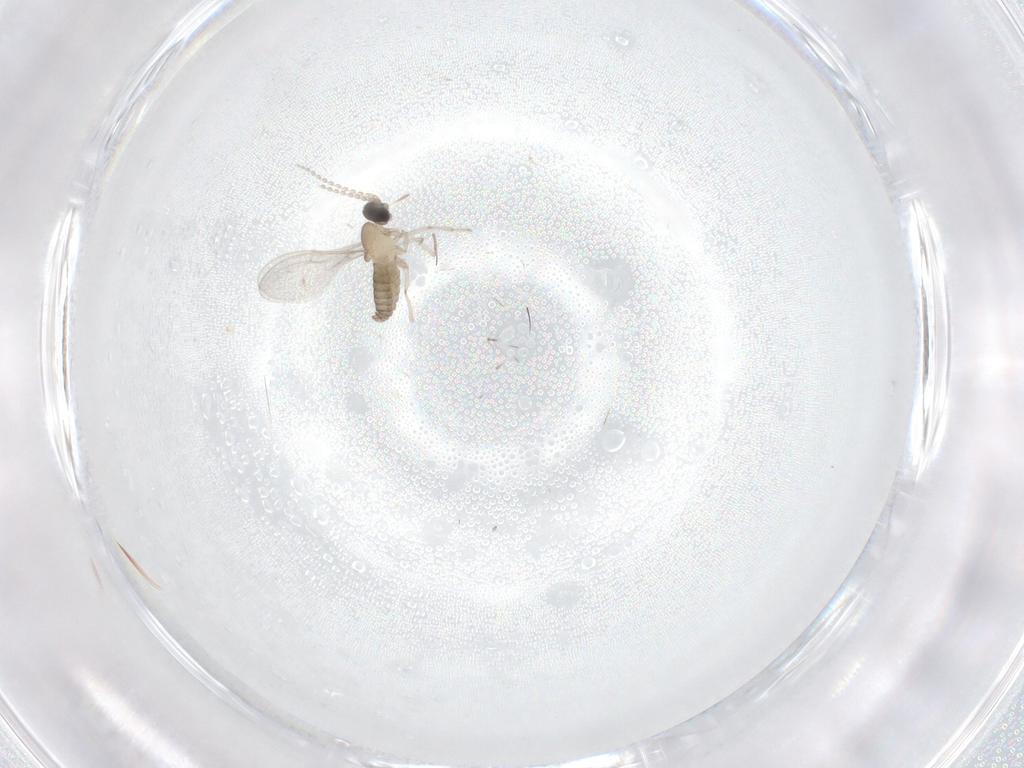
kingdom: Animalia
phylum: Arthropoda
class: Insecta
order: Diptera
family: Cecidomyiidae
